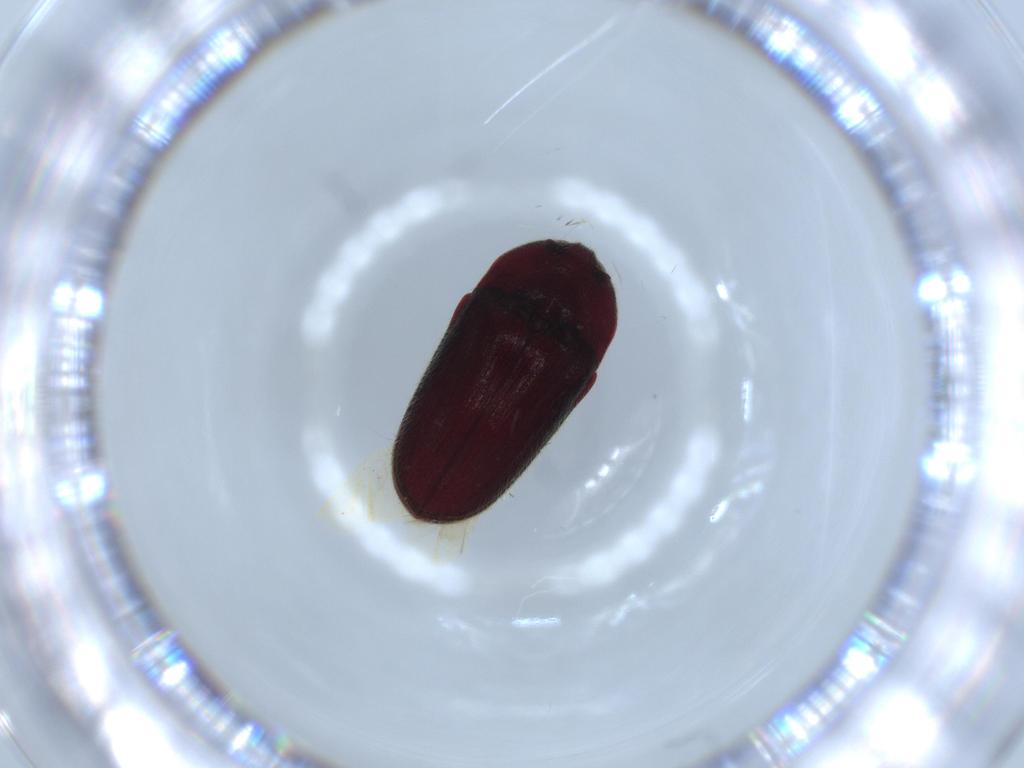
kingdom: Animalia
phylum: Arthropoda
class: Insecta
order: Coleoptera
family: Throscidae
